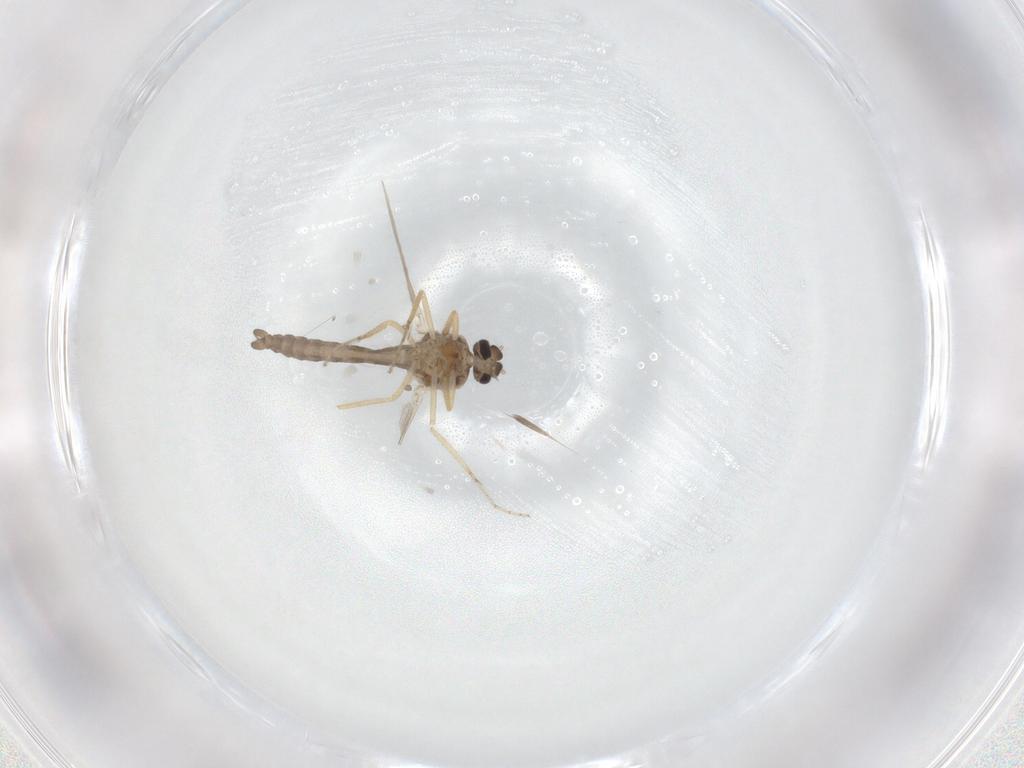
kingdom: Animalia
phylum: Arthropoda
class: Insecta
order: Diptera
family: Ceratopogonidae
